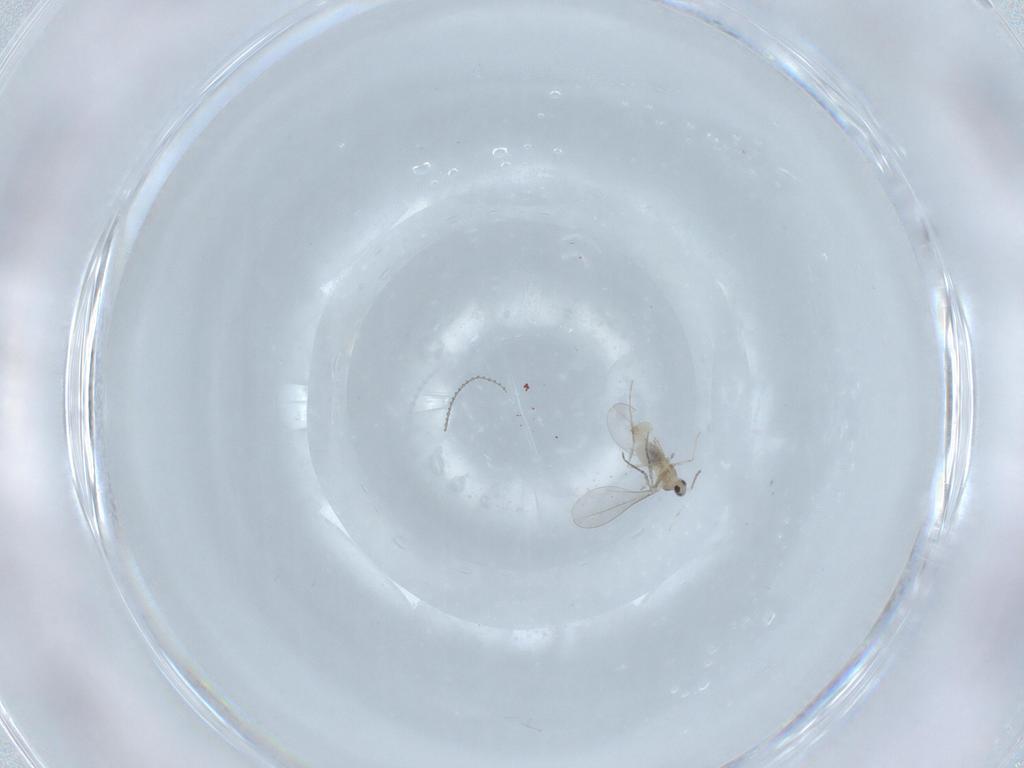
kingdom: Animalia
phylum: Arthropoda
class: Insecta
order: Diptera
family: Cecidomyiidae
